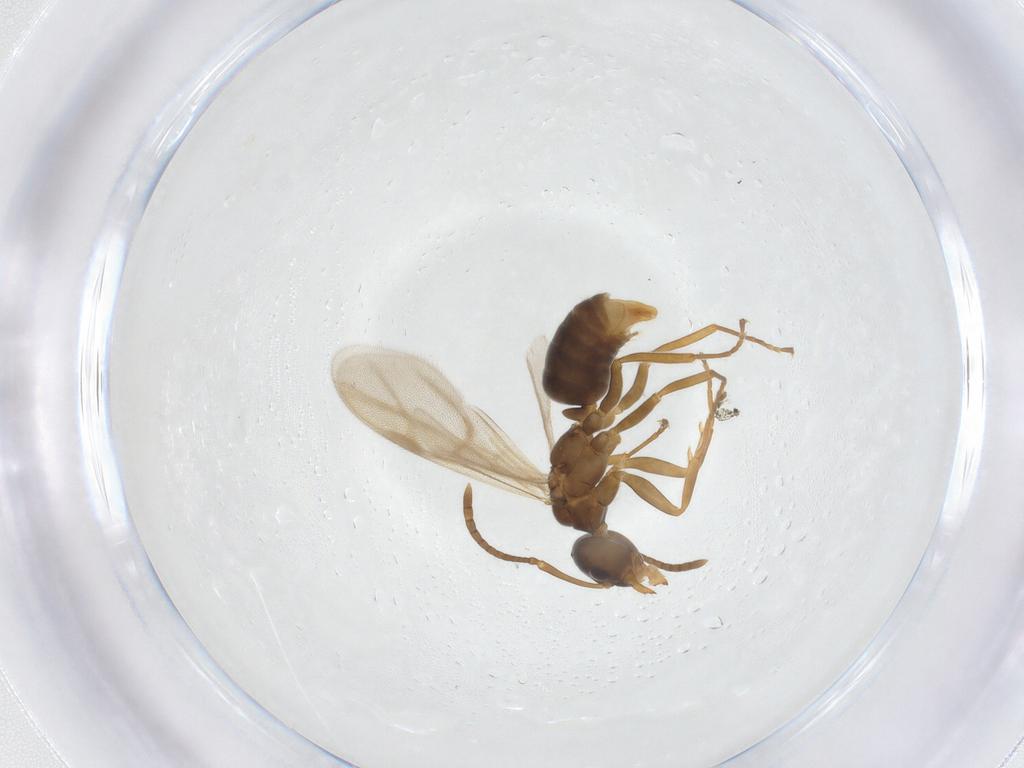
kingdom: Animalia
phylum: Arthropoda
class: Insecta
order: Hymenoptera
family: Formicidae
